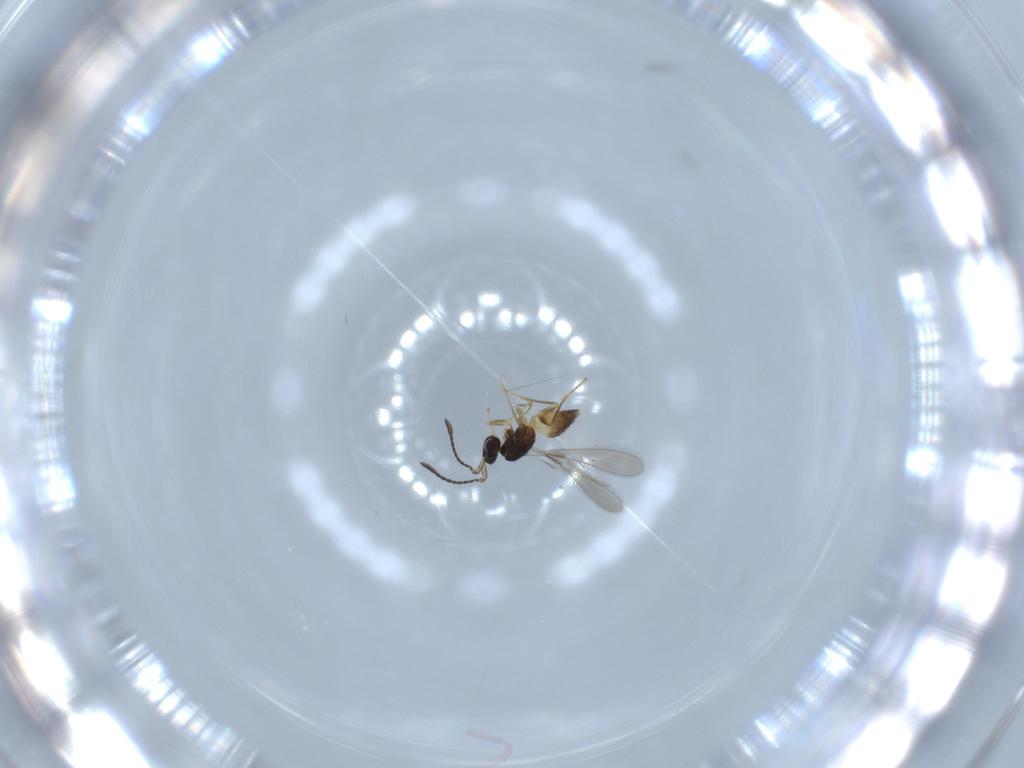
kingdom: Animalia
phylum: Arthropoda
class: Insecta
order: Hymenoptera
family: Mymaridae
